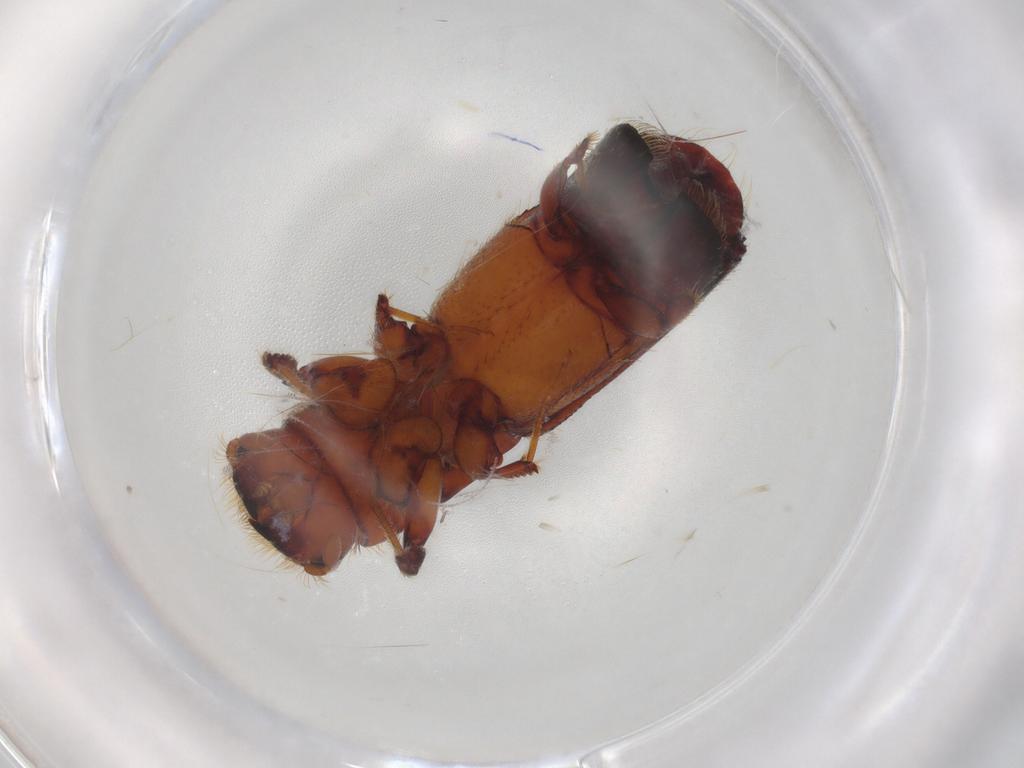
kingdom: Animalia
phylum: Arthropoda
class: Insecta
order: Coleoptera
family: Curculionidae
